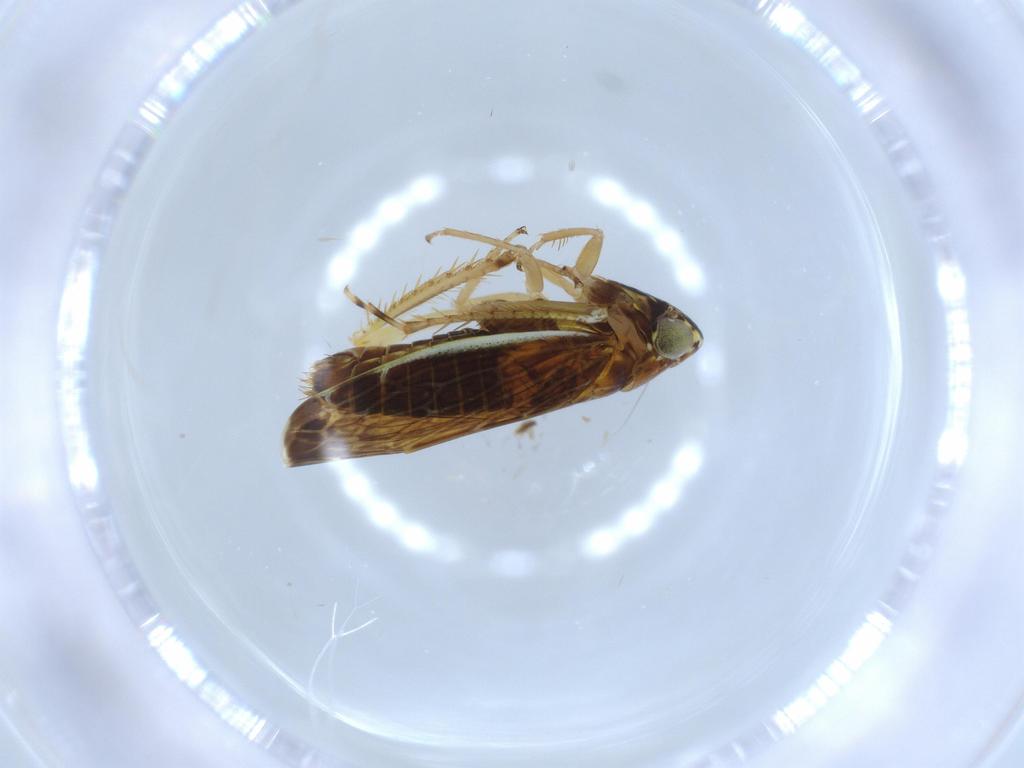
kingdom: Animalia
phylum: Arthropoda
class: Insecta
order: Hemiptera
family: Cicadellidae
